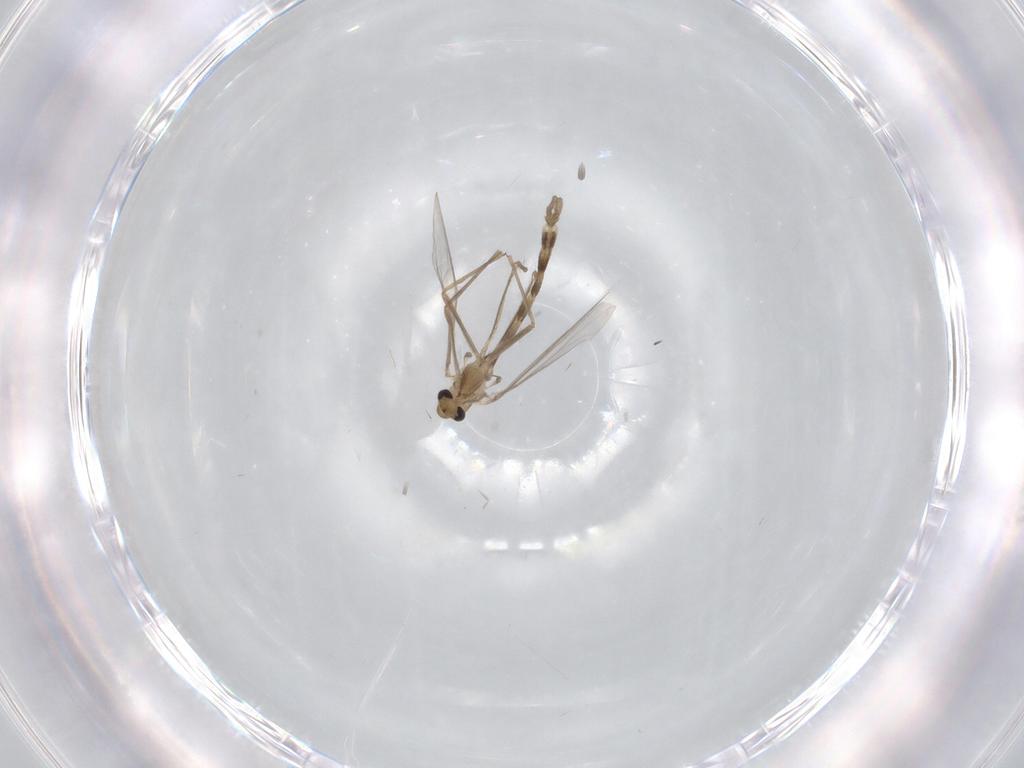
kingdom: Animalia
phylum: Arthropoda
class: Insecta
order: Diptera
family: Chironomidae
